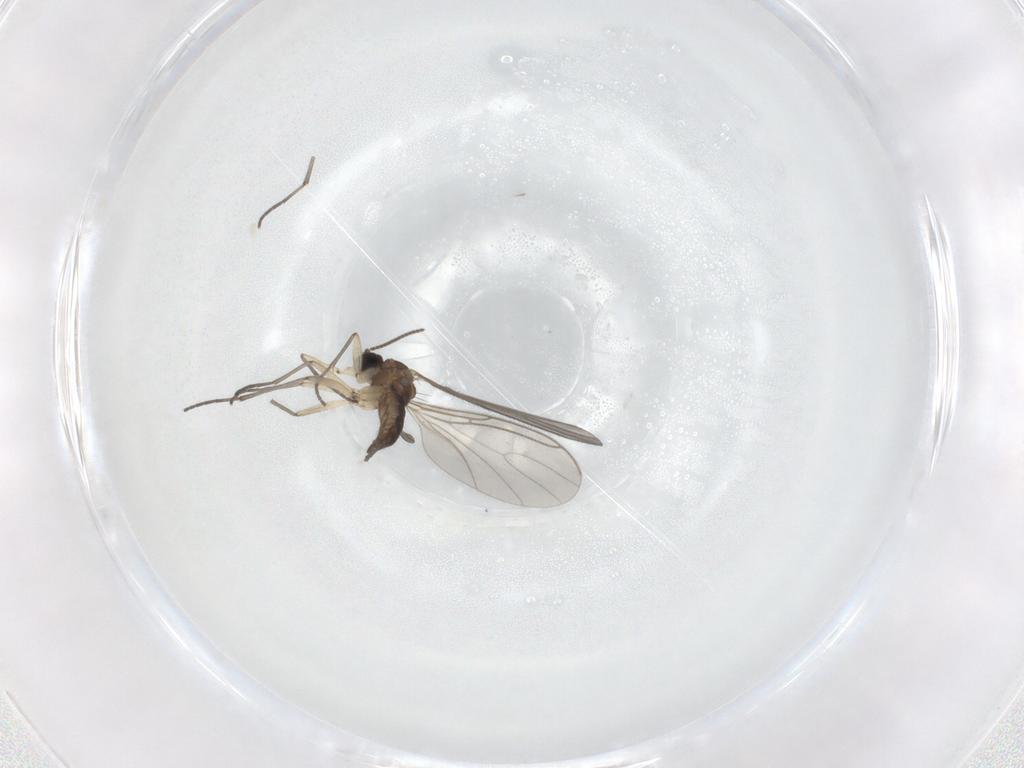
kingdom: Animalia
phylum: Arthropoda
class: Insecta
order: Diptera
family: Sciaridae
